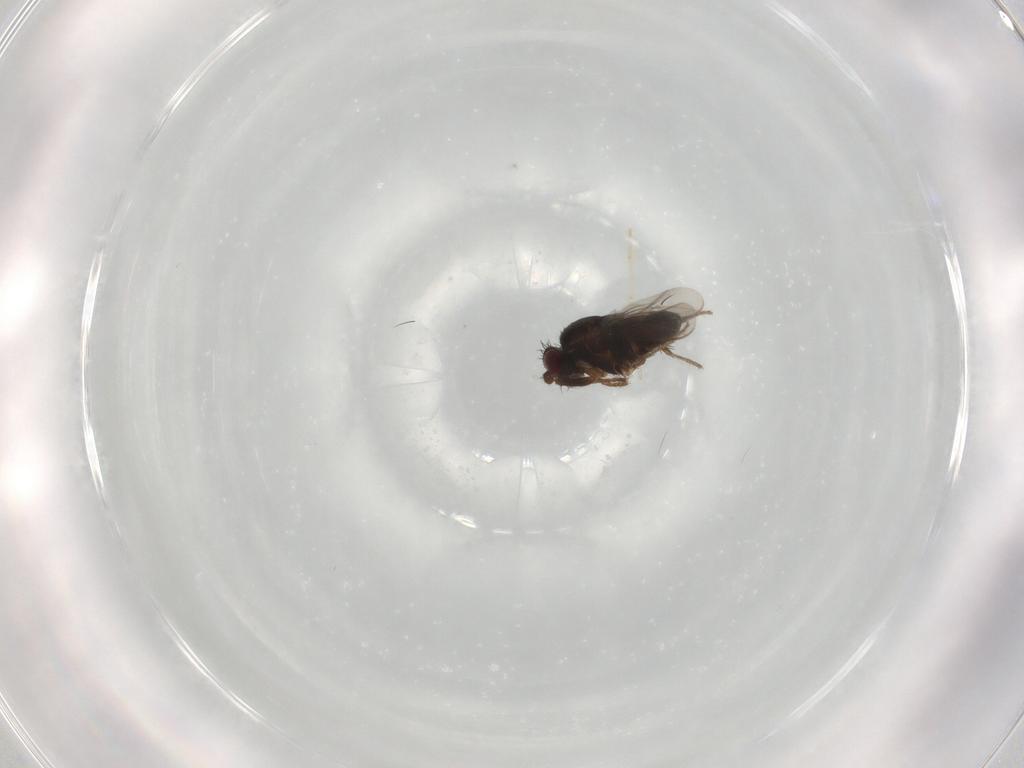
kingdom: Animalia
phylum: Arthropoda
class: Insecta
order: Diptera
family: Sphaeroceridae
